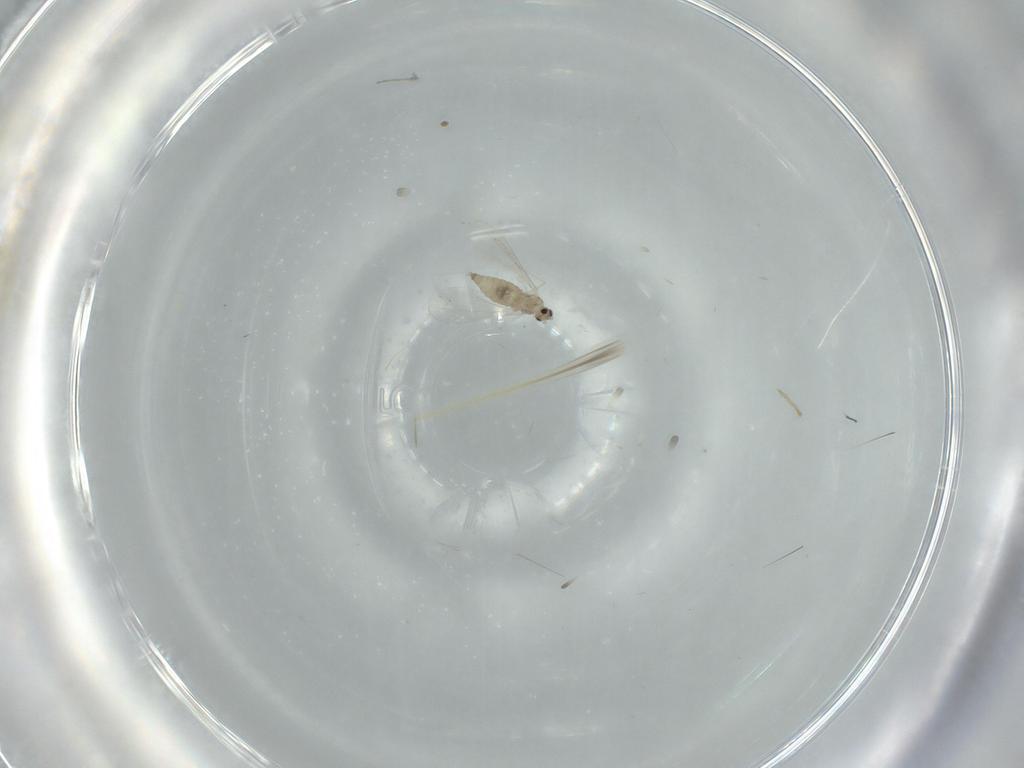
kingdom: Animalia
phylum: Arthropoda
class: Insecta
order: Diptera
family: Cecidomyiidae
